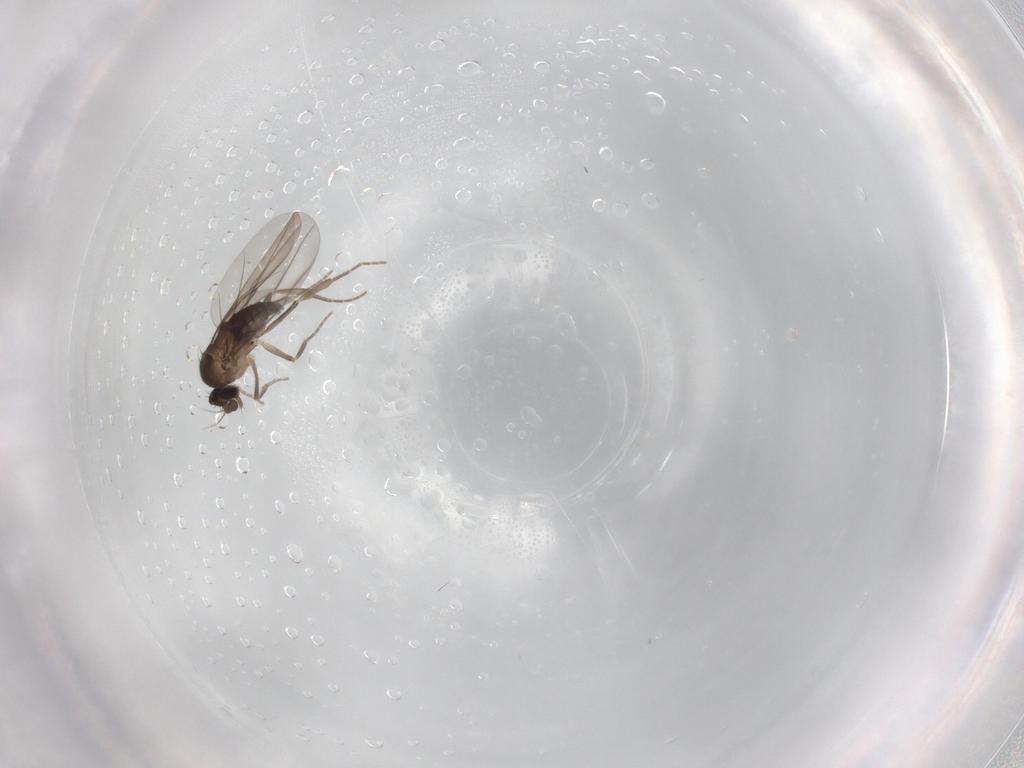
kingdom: Animalia
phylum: Arthropoda
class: Insecta
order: Diptera
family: Phoridae
